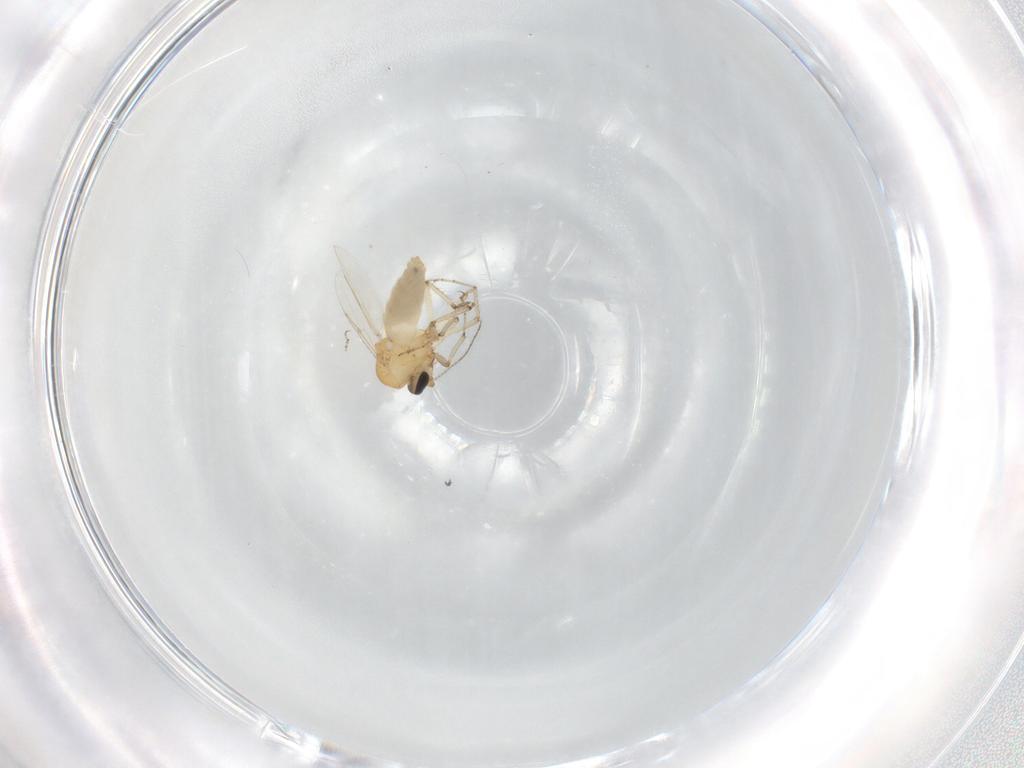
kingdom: Animalia
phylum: Arthropoda
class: Insecta
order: Diptera
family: Ceratopogonidae
